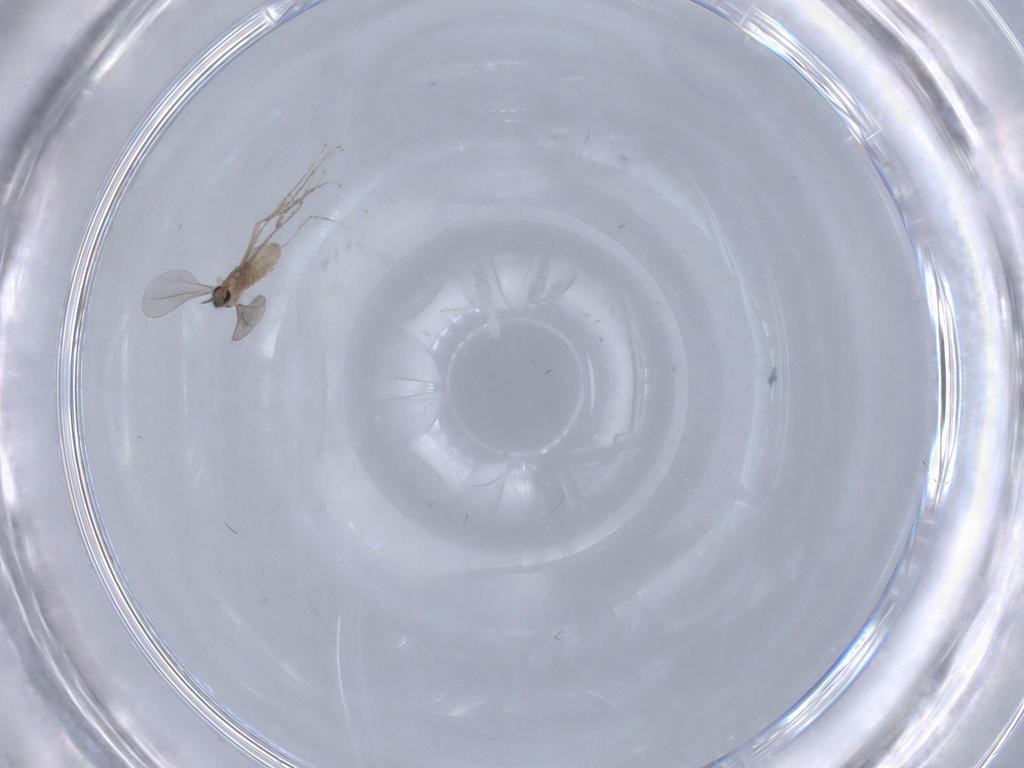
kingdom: Animalia
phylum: Arthropoda
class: Insecta
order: Diptera
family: Cecidomyiidae
